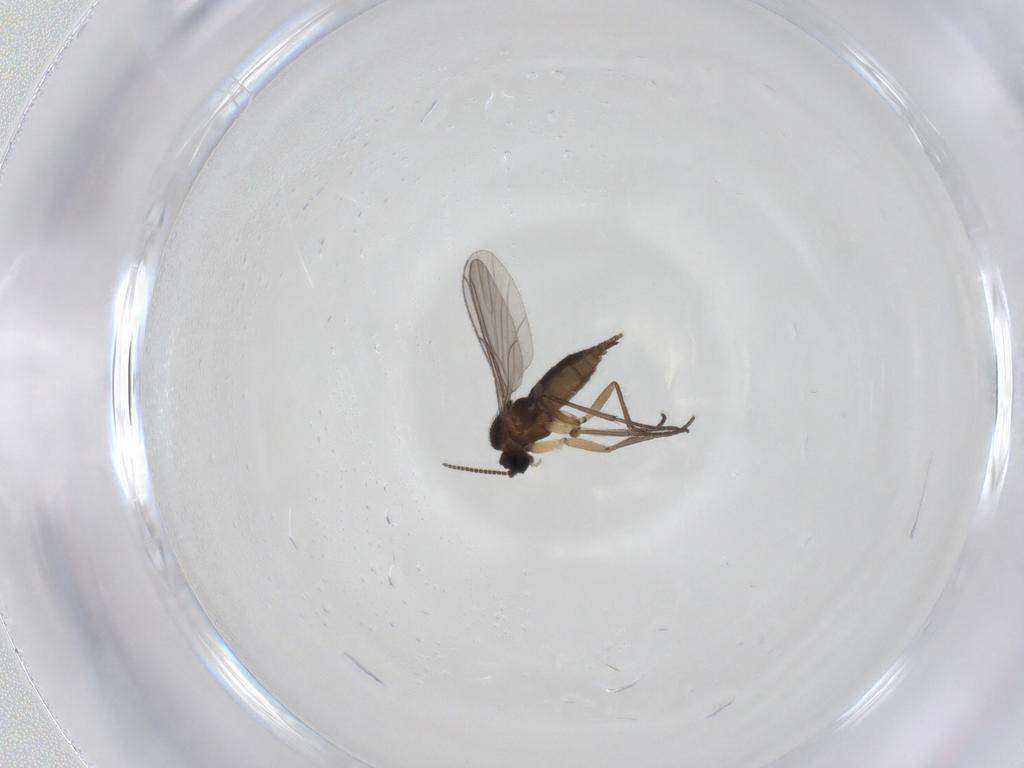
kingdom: Animalia
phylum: Arthropoda
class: Insecta
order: Diptera
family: Sciaridae
